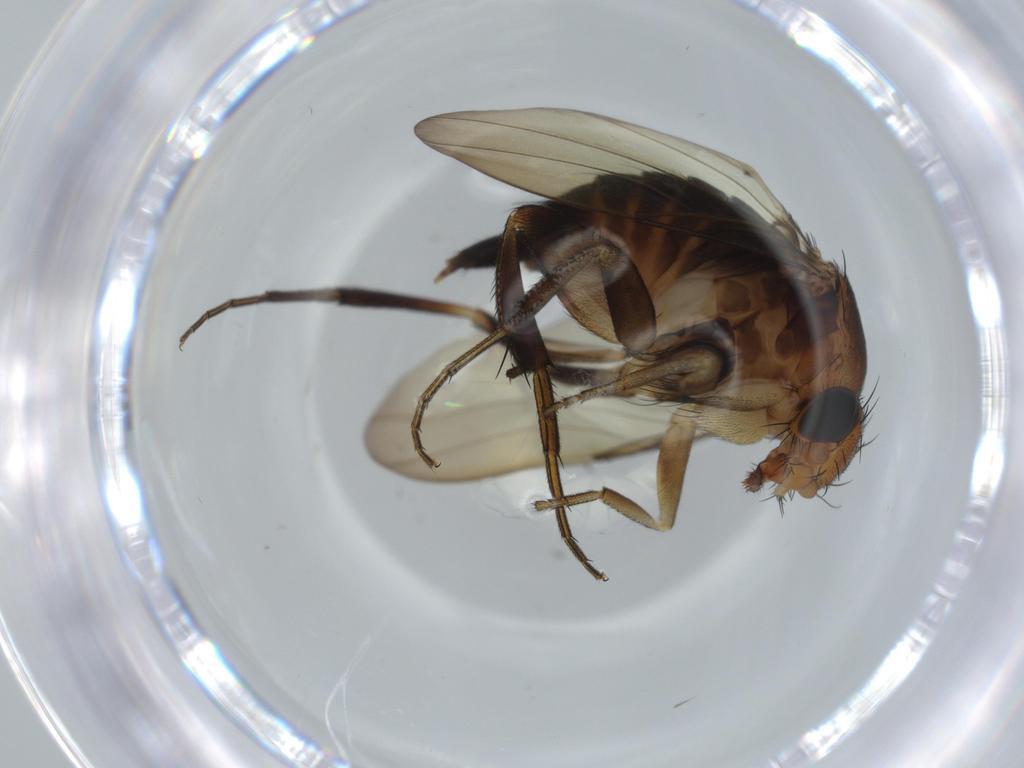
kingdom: Animalia
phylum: Arthropoda
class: Insecta
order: Diptera
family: Phoridae
